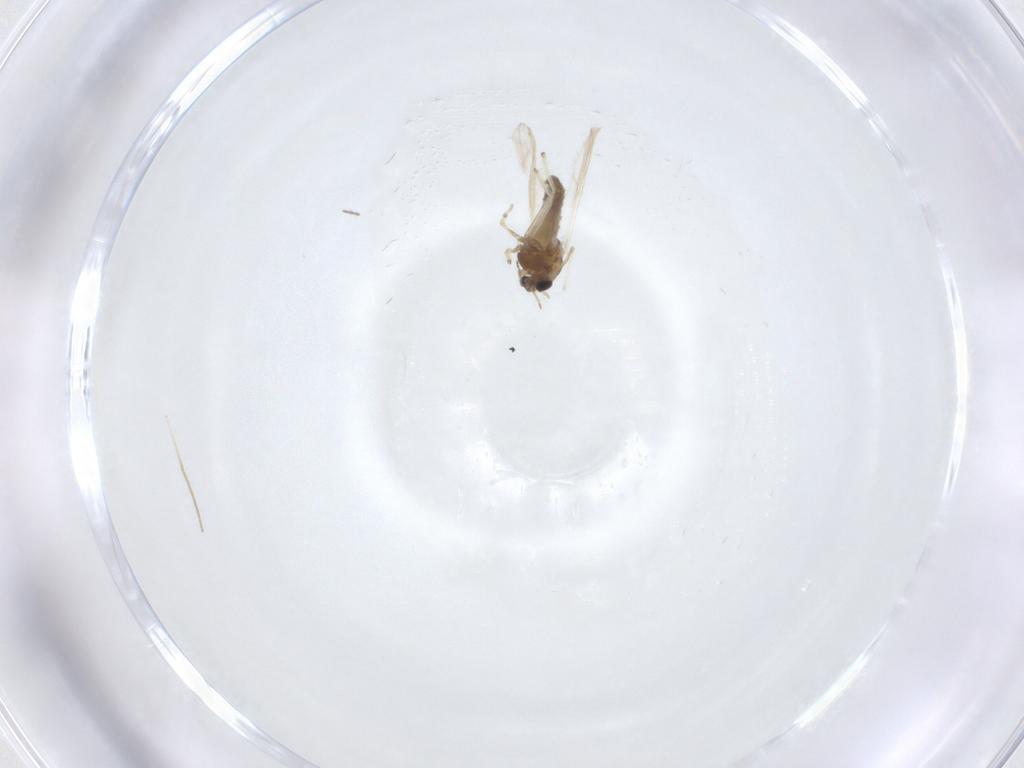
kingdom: Animalia
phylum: Arthropoda
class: Insecta
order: Diptera
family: Chironomidae
